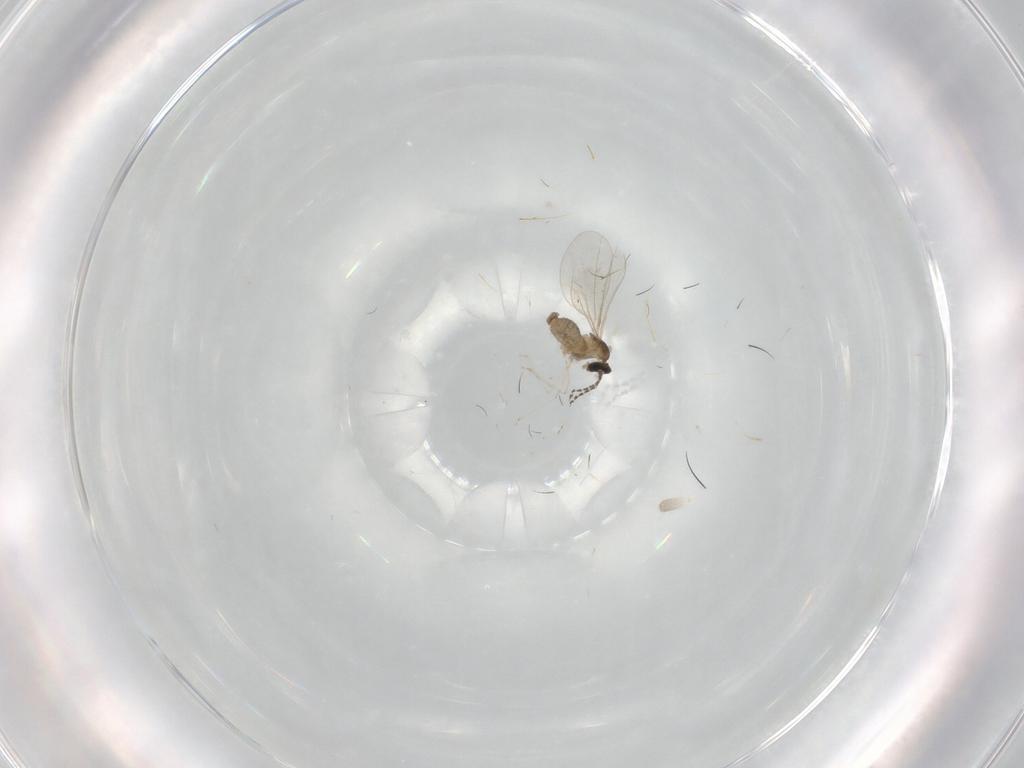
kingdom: Animalia
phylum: Arthropoda
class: Insecta
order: Diptera
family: Cecidomyiidae
